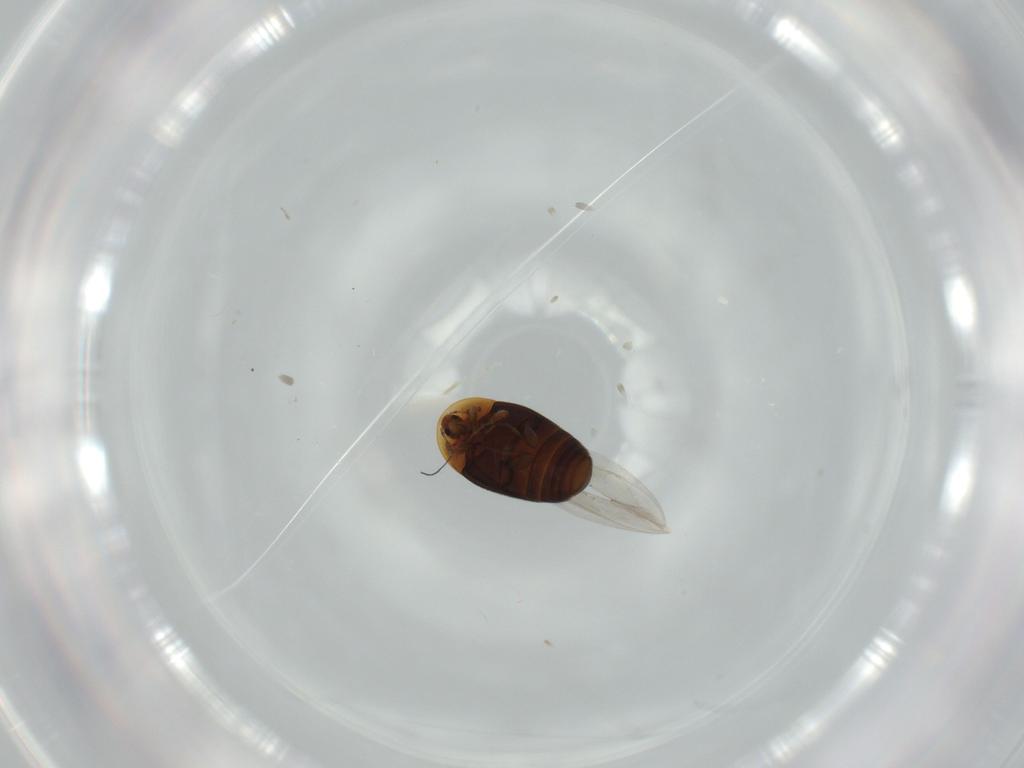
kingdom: Animalia
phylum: Arthropoda
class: Insecta
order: Coleoptera
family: Corylophidae
